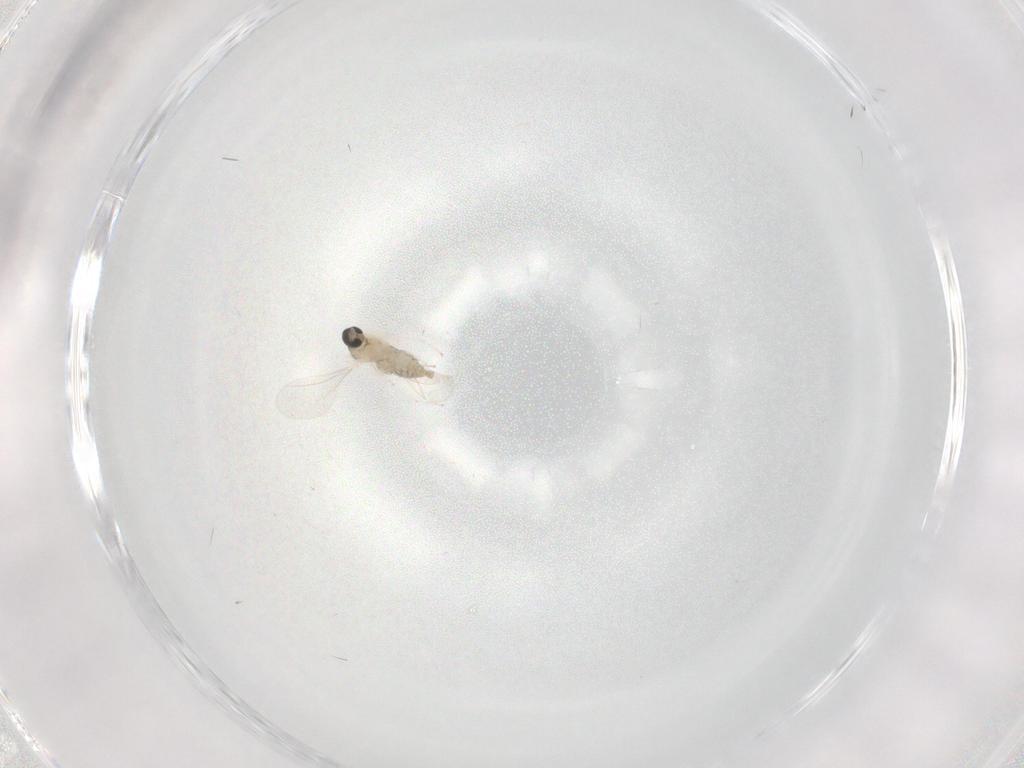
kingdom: Animalia
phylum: Arthropoda
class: Insecta
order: Diptera
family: Cecidomyiidae
